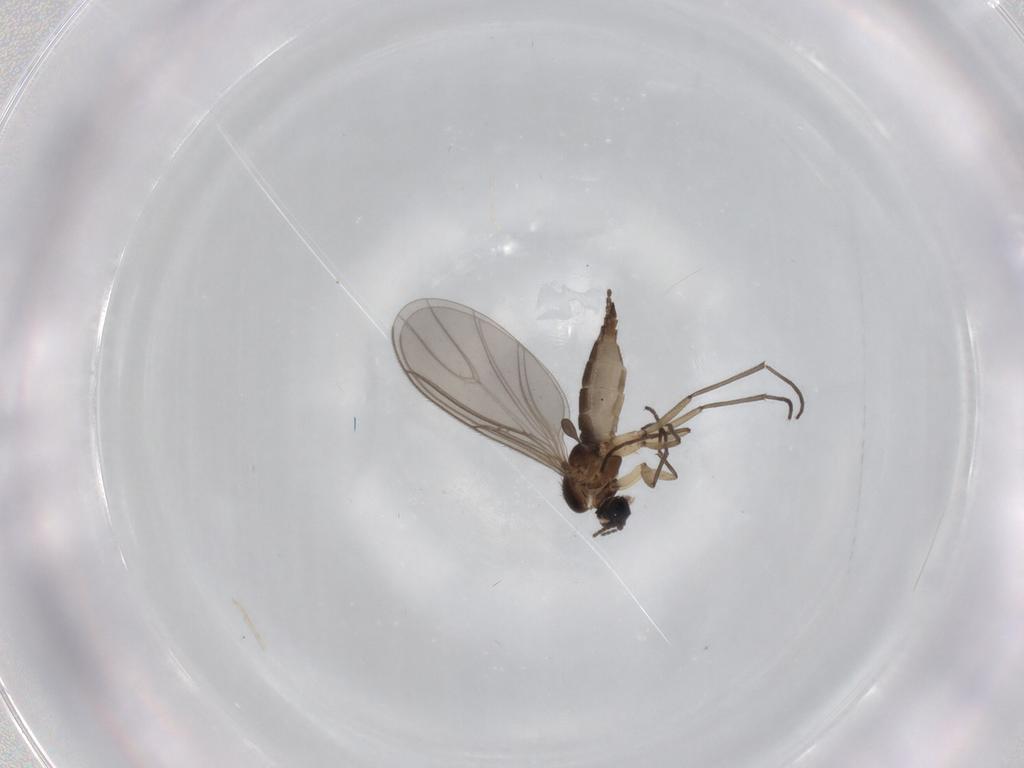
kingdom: Animalia
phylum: Arthropoda
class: Insecta
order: Diptera
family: Sciaridae
